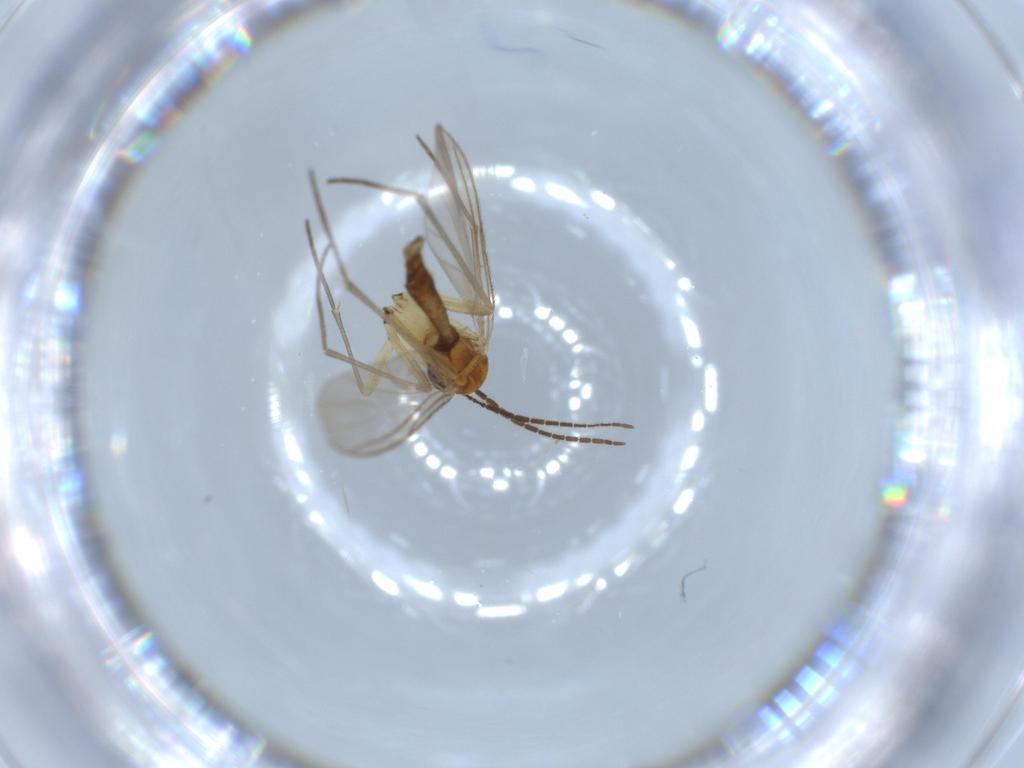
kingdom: Animalia
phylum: Arthropoda
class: Insecta
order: Diptera
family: Sciaridae
